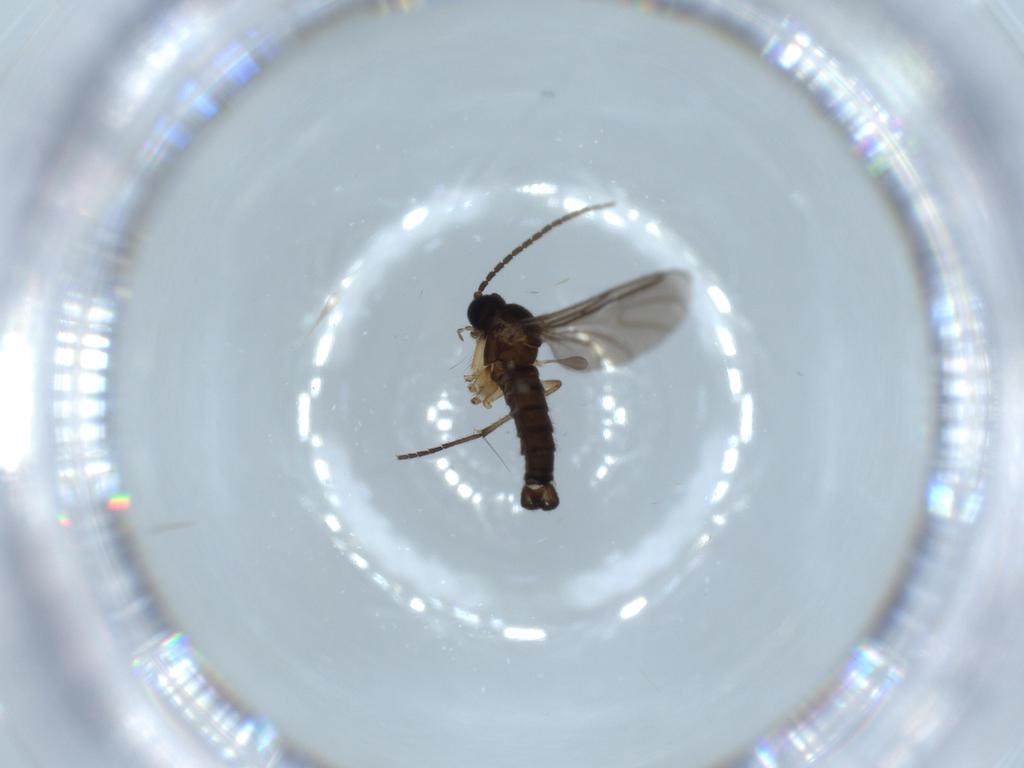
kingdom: Animalia
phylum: Arthropoda
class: Insecta
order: Diptera
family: Sciaridae
